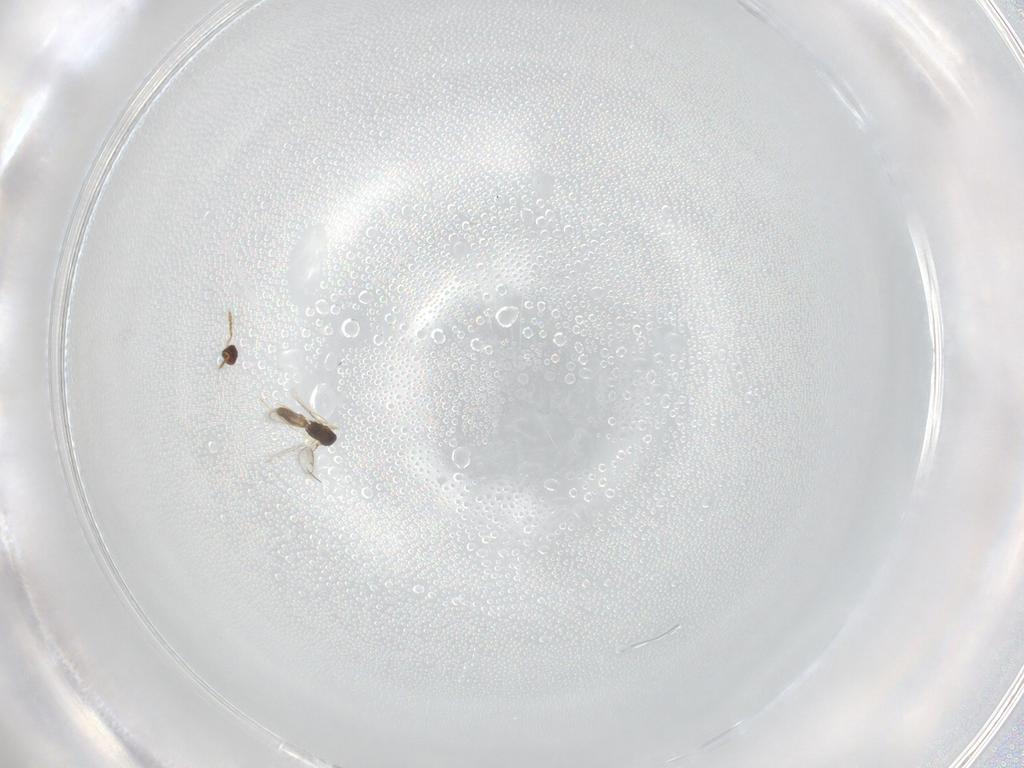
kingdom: Animalia
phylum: Arthropoda
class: Insecta
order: Hymenoptera
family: Eulophidae
